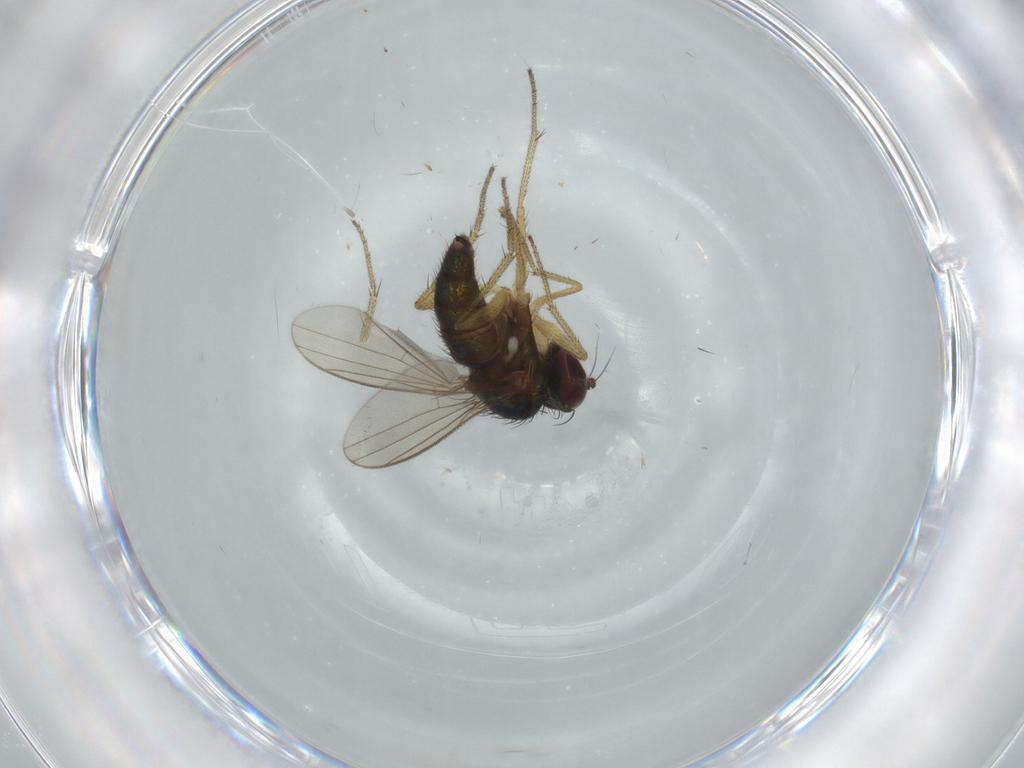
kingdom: Animalia
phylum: Arthropoda
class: Insecta
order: Diptera
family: Dolichopodidae
